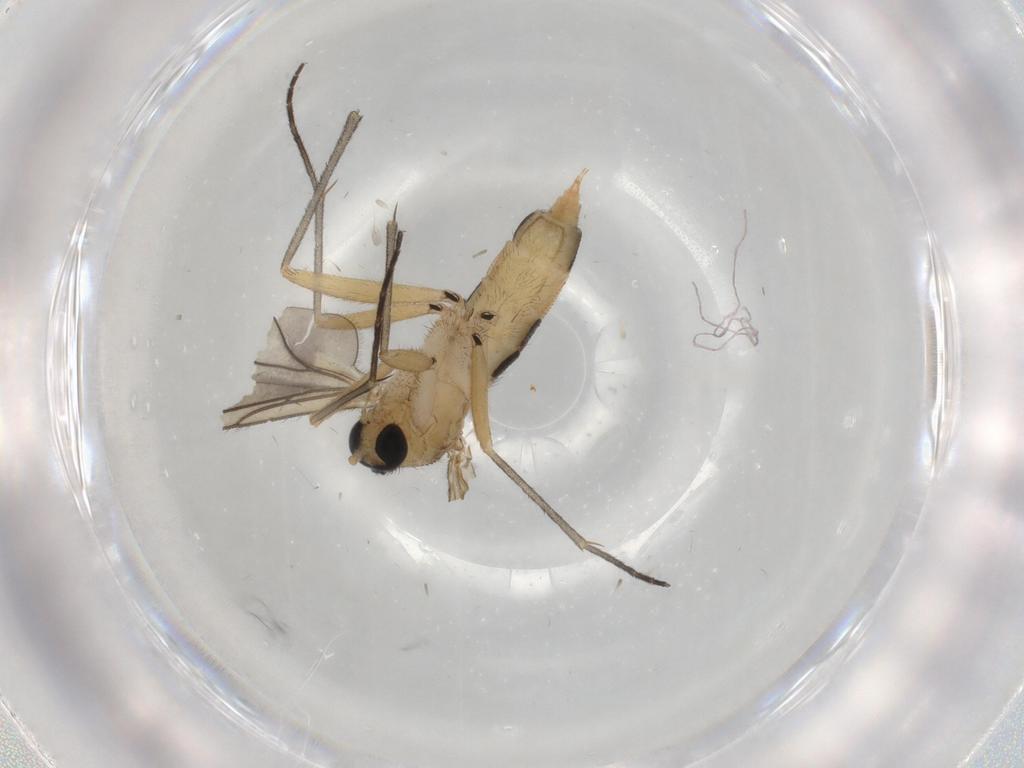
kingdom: Animalia
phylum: Arthropoda
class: Insecta
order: Diptera
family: Sciaridae
